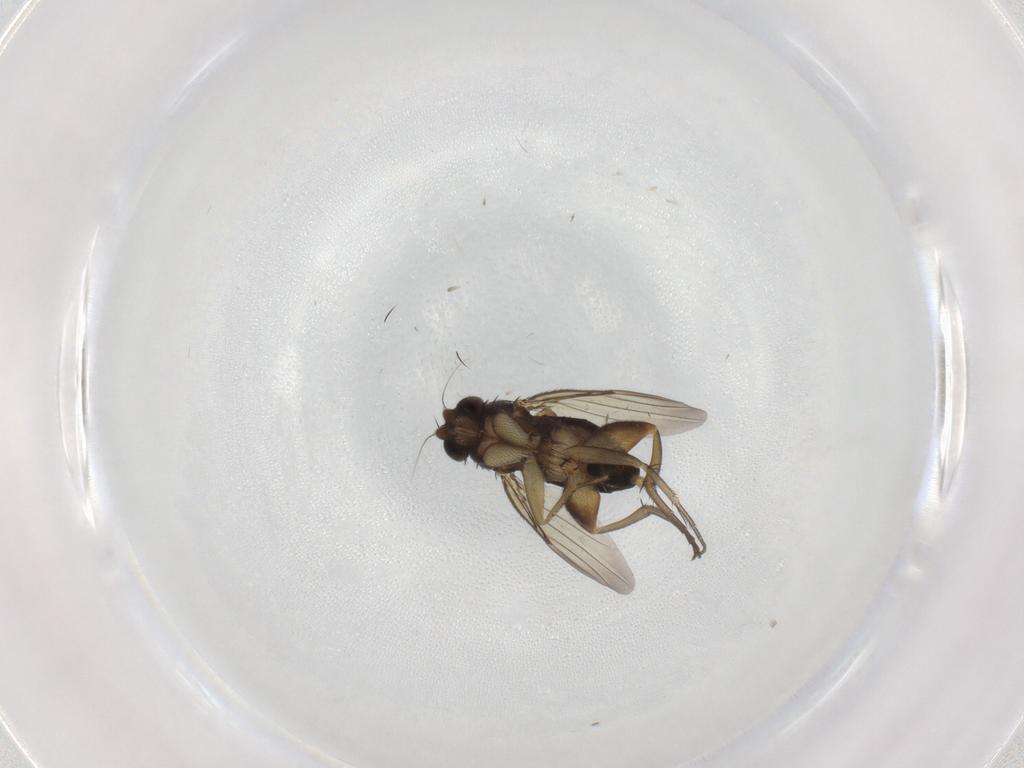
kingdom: Animalia
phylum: Arthropoda
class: Insecta
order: Diptera
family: Phoridae
